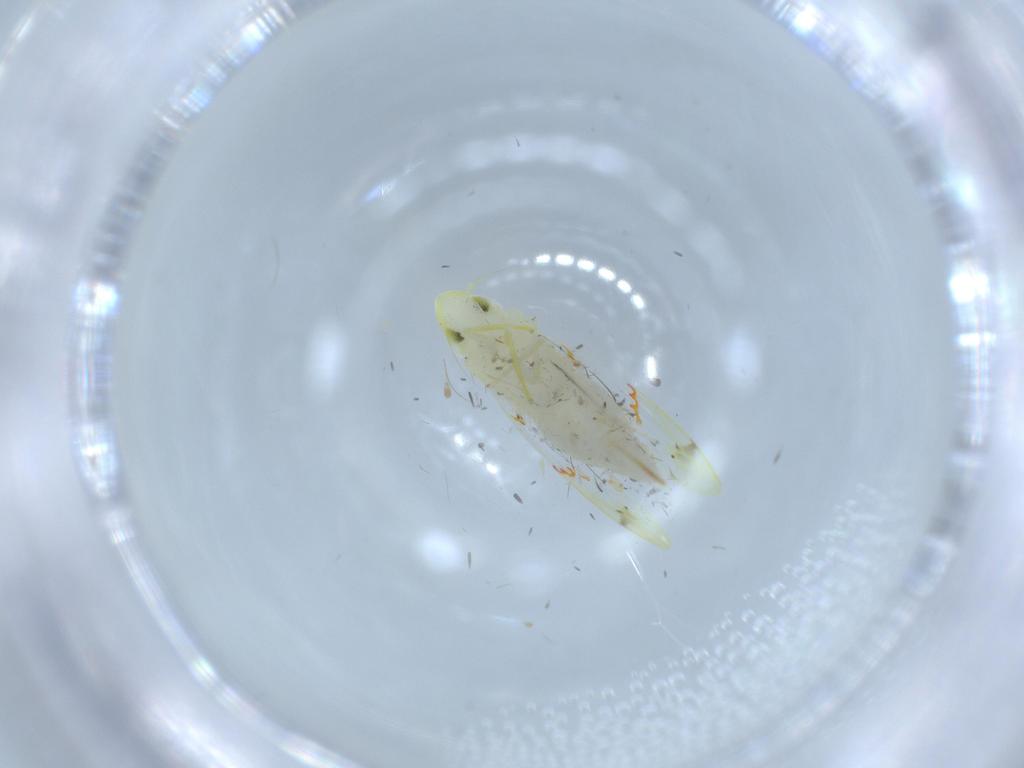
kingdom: Animalia
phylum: Arthropoda
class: Insecta
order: Hemiptera
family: Cicadellidae
